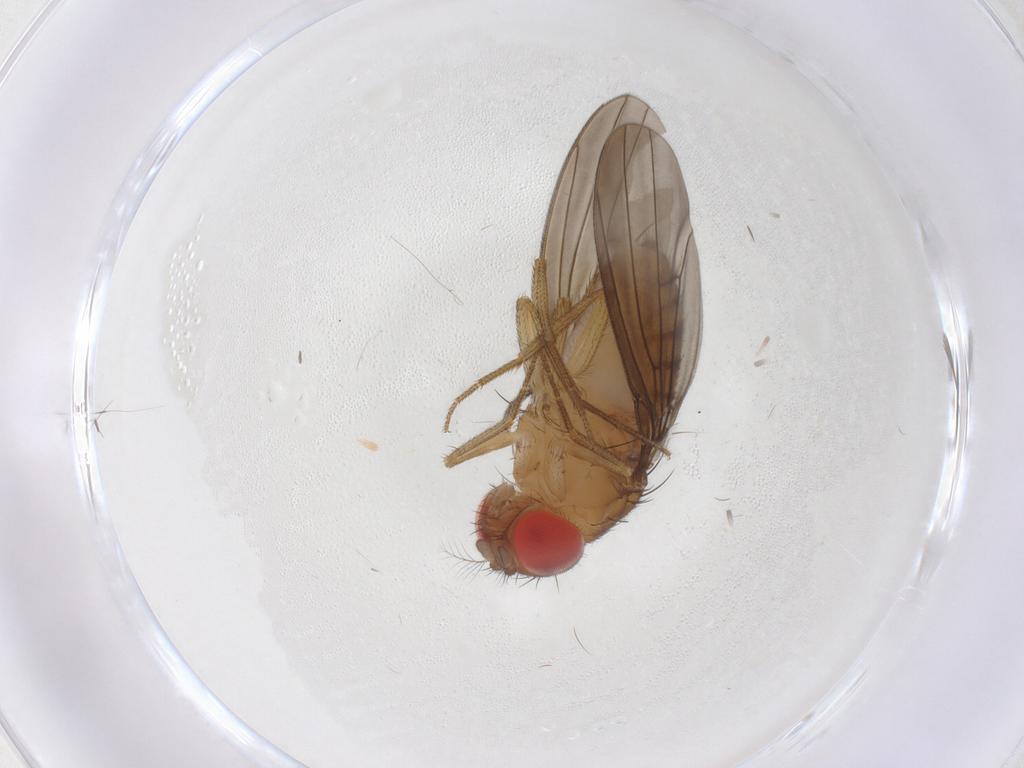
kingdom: Animalia
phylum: Arthropoda
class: Insecta
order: Diptera
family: Drosophilidae
